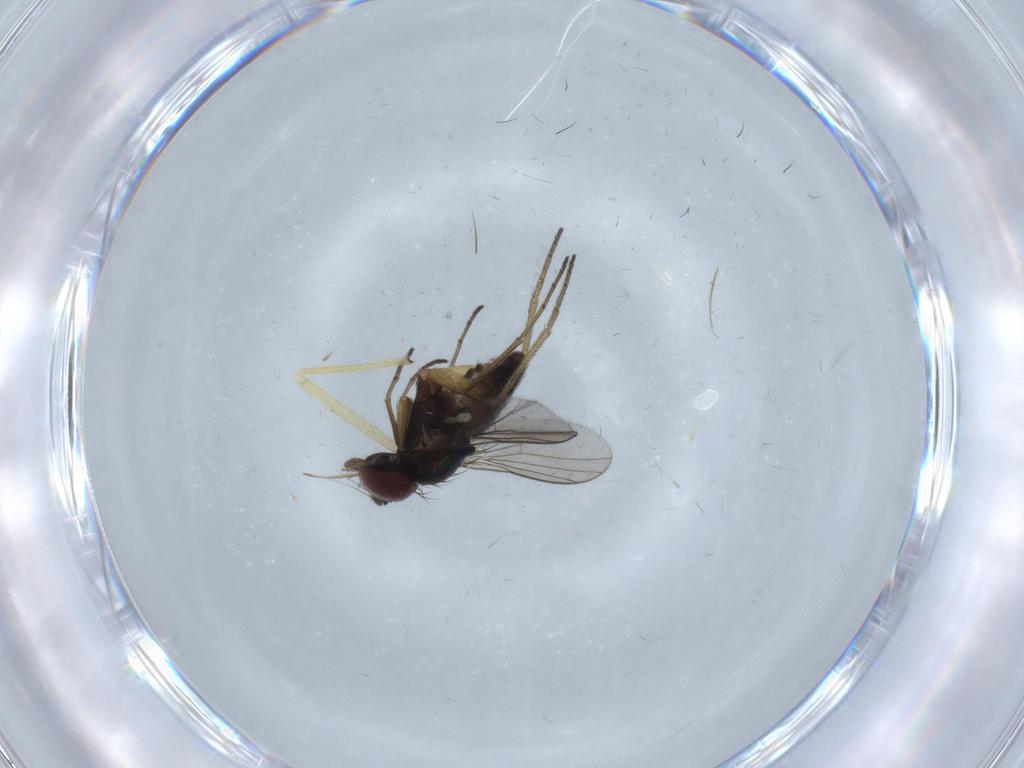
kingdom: Animalia
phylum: Arthropoda
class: Insecta
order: Diptera
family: Dolichopodidae
